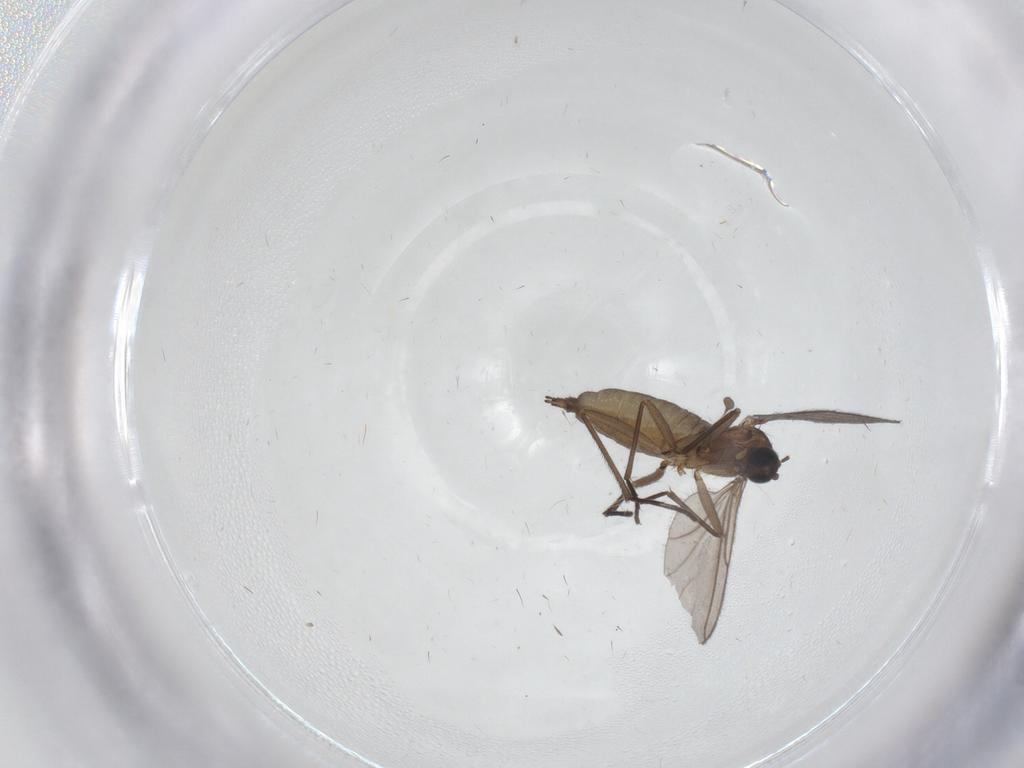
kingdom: Animalia
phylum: Arthropoda
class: Insecta
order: Diptera
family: Sciaridae
